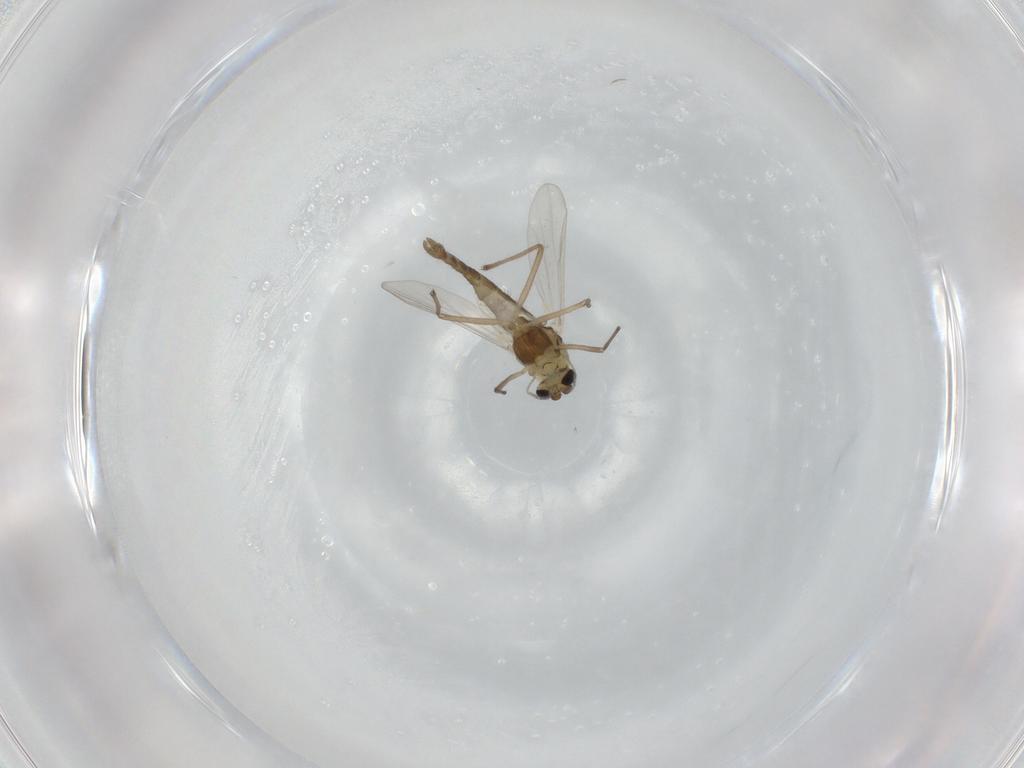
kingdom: Animalia
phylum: Arthropoda
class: Insecta
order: Diptera
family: Chironomidae
